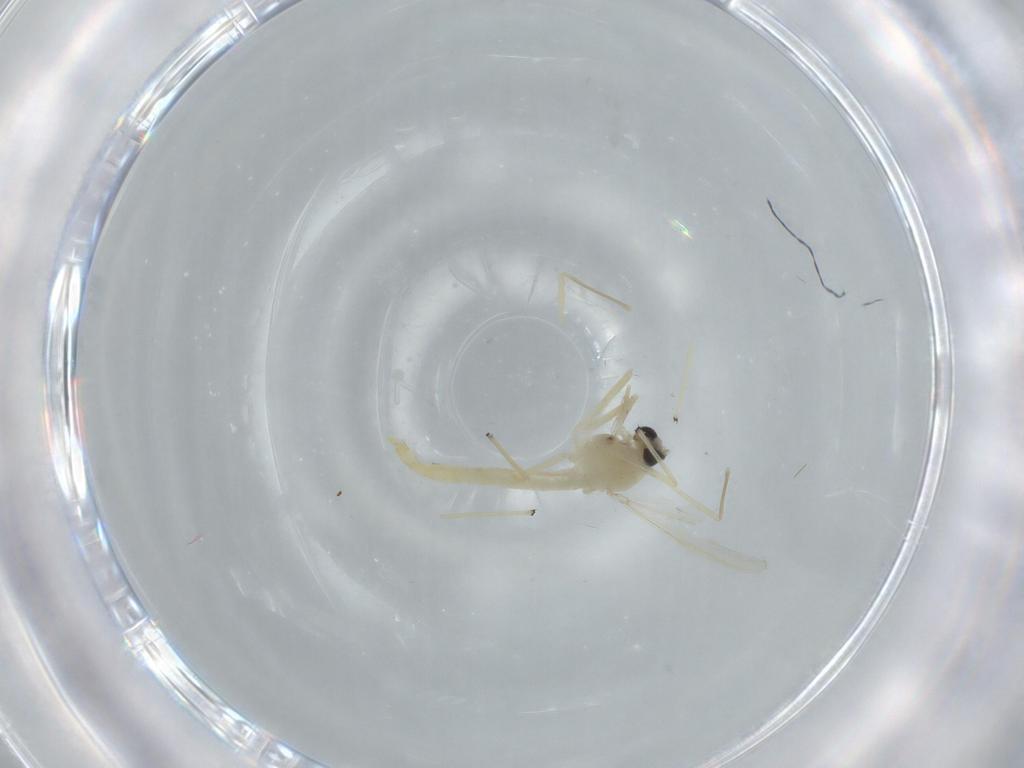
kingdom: Animalia
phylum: Arthropoda
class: Insecta
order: Diptera
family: Chironomidae
